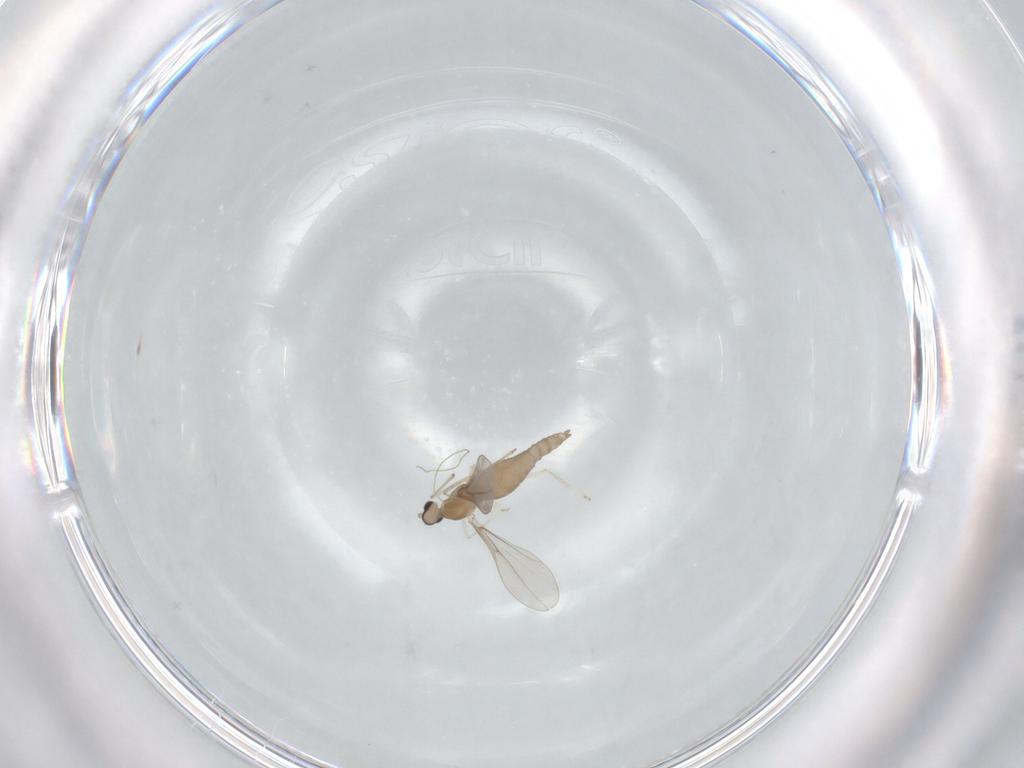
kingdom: Animalia
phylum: Arthropoda
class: Insecta
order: Diptera
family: Cecidomyiidae
